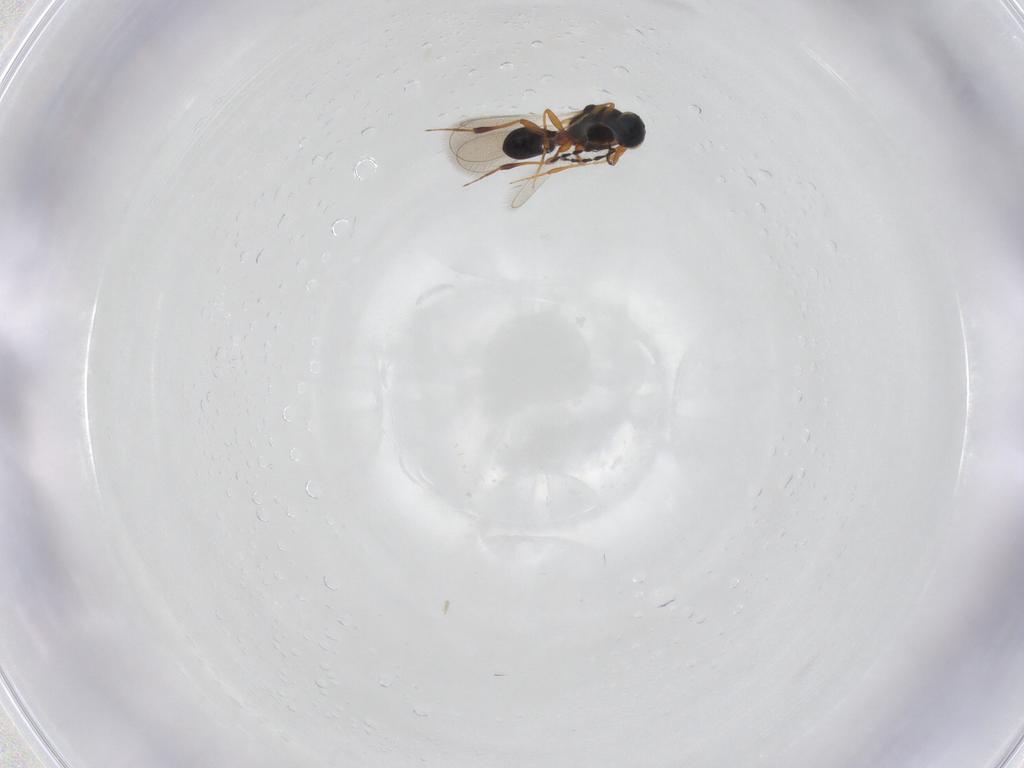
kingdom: Animalia
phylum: Arthropoda
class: Insecta
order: Hymenoptera
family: Platygastridae
